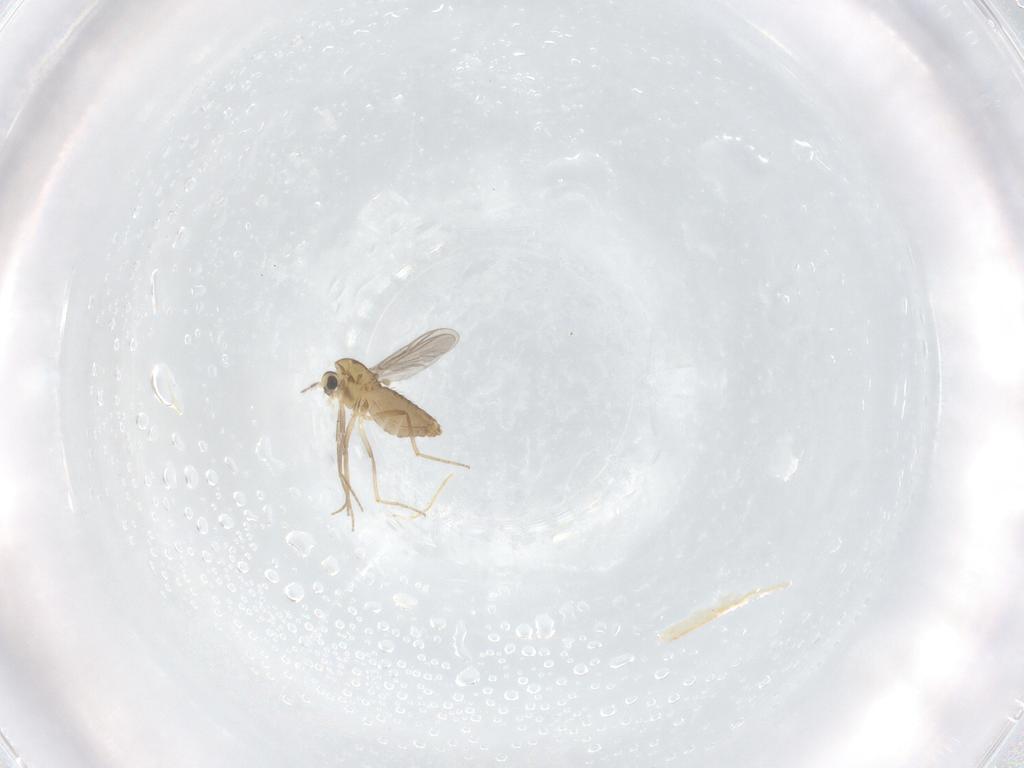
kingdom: Animalia
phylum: Arthropoda
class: Insecta
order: Diptera
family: Chironomidae
